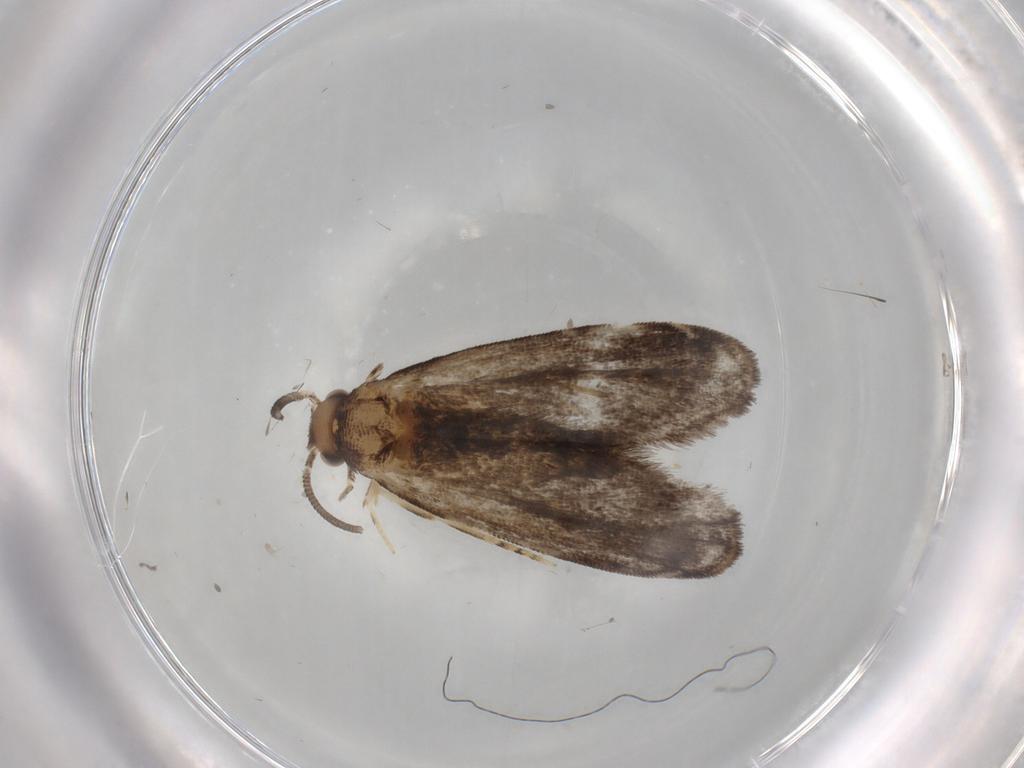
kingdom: Animalia
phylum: Arthropoda
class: Insecta
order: Lepidoptera
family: Dryadaulidae
